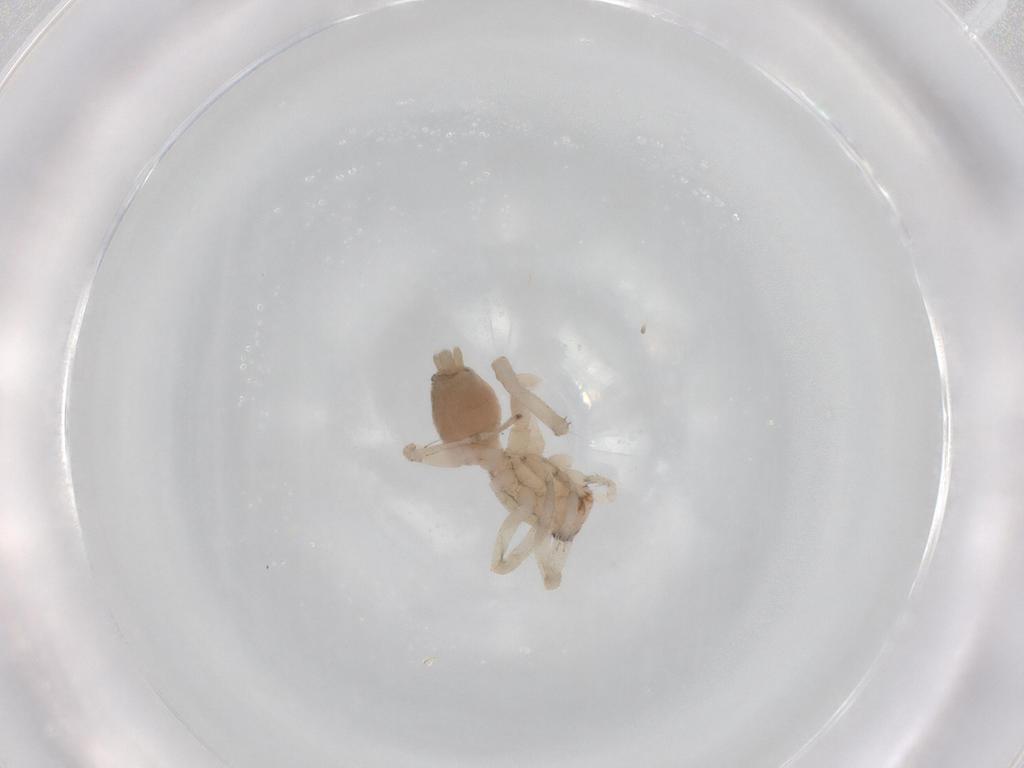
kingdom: Animalia
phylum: Arthropoda
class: Arachnida
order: Araneae
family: Anyphaenidae
